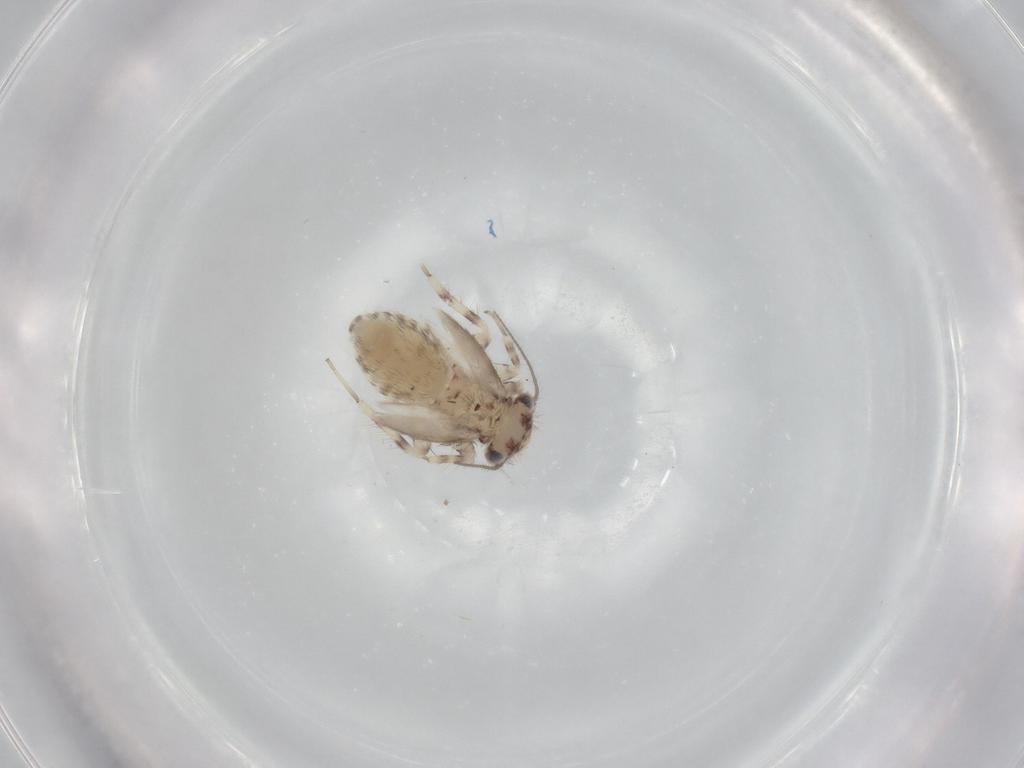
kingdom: Animalia
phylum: Arthropoda
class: Insecta
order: Psocodea
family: Lepidopsocidae
